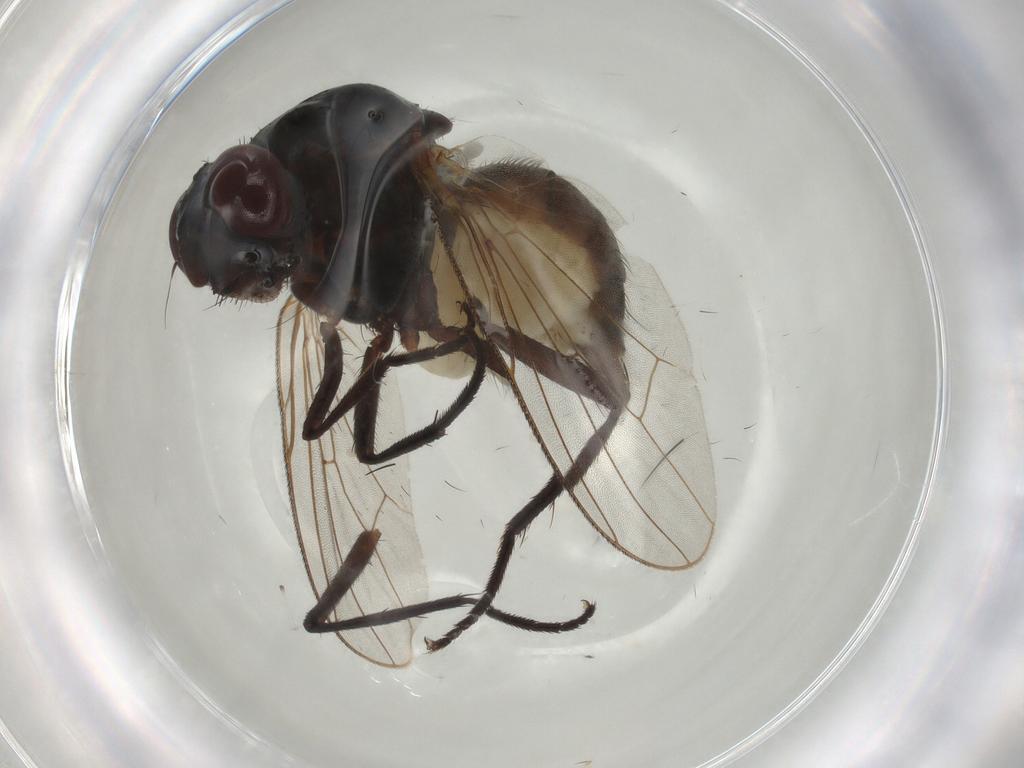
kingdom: Animalia
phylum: Arthropoda
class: Insecta
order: Diptera
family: Anthomyiidae
